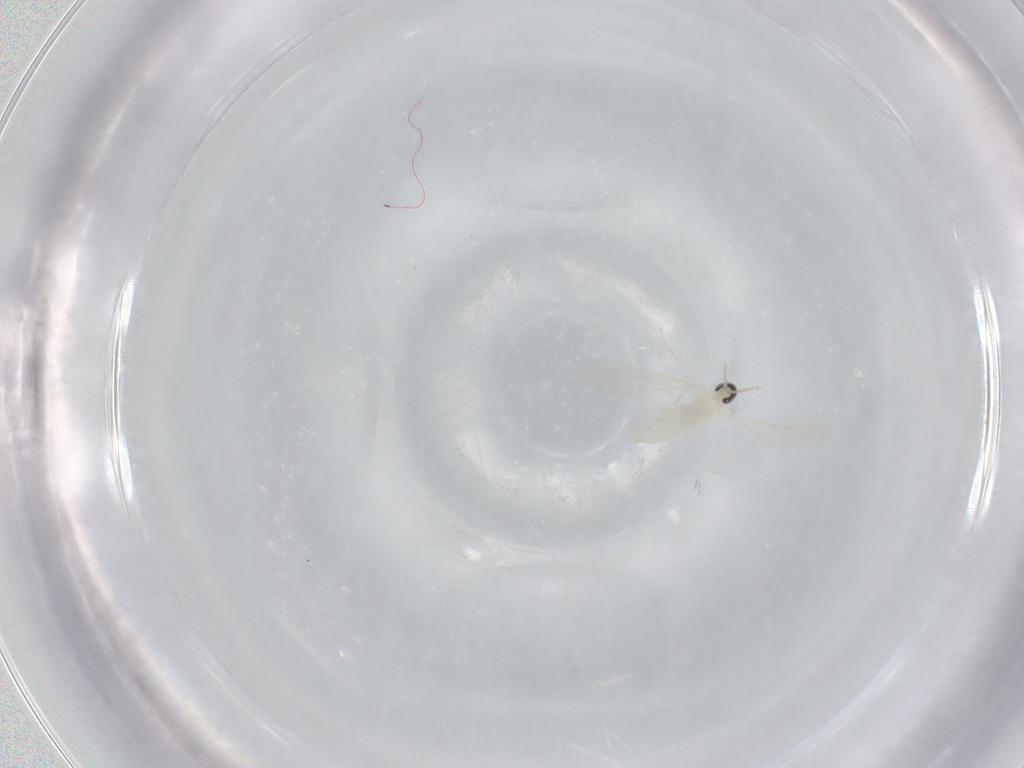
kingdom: Animalia
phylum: Arthropoda
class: Insecta
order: Diptera
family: Cecidomyiidae
